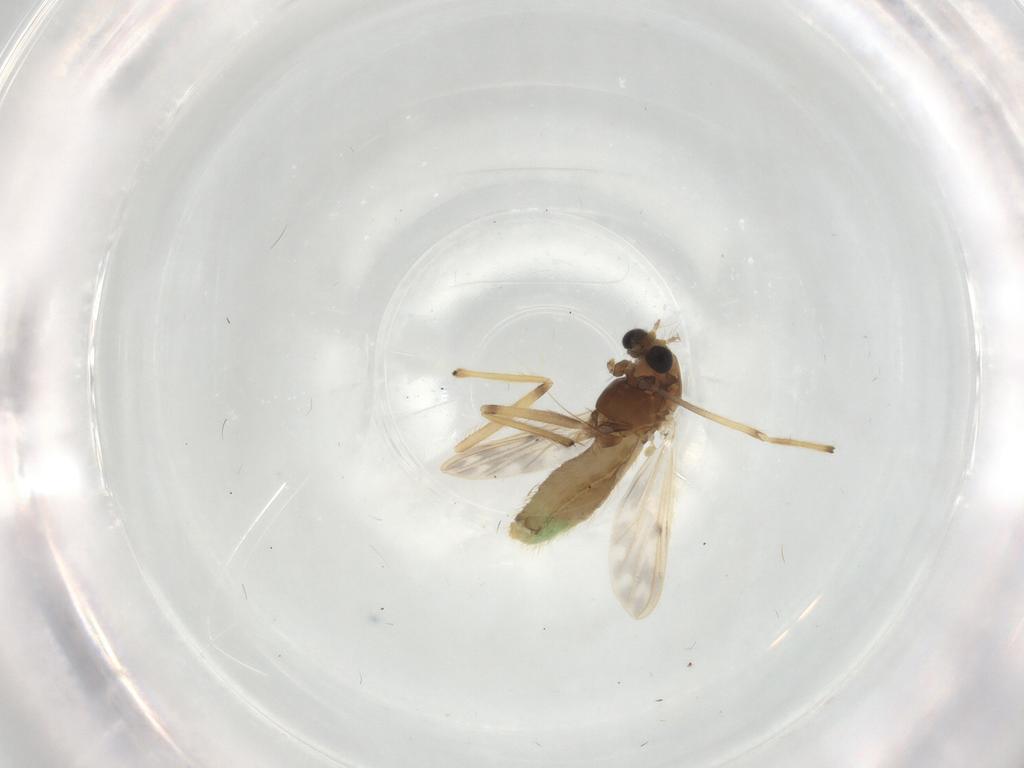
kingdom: Animalia
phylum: Arthropoda
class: Insecta
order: Diptera
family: Chironomidae
